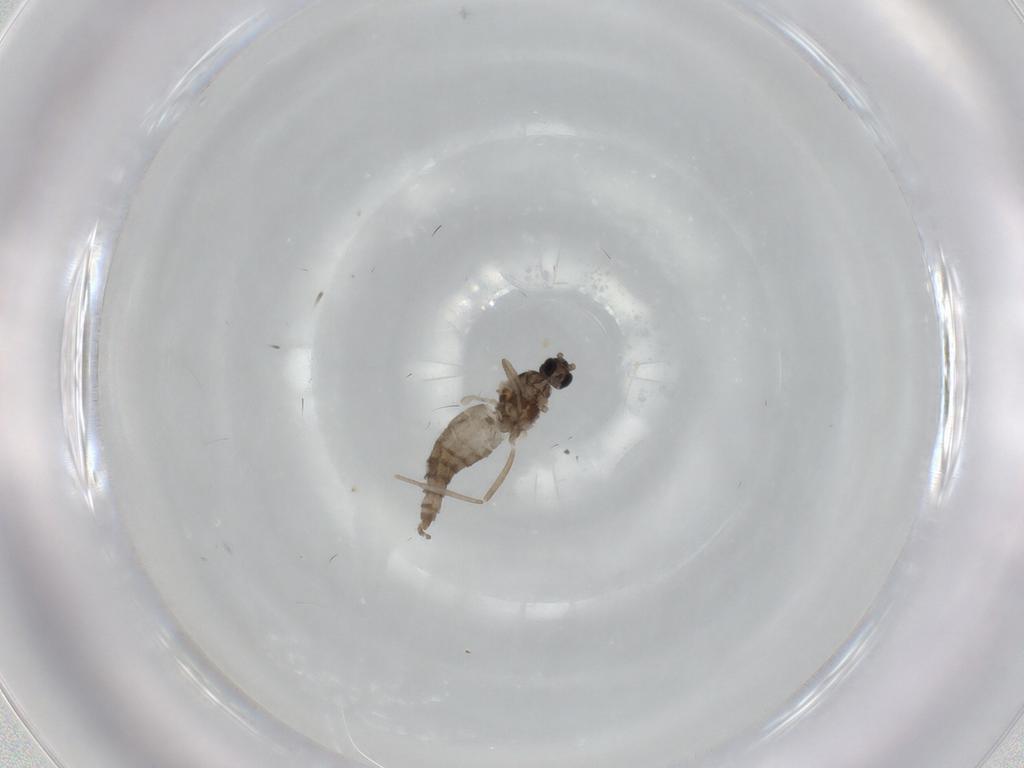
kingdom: Animalia
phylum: Arthropoda
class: Insecta
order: Diptera
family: Cecidomyiidae
